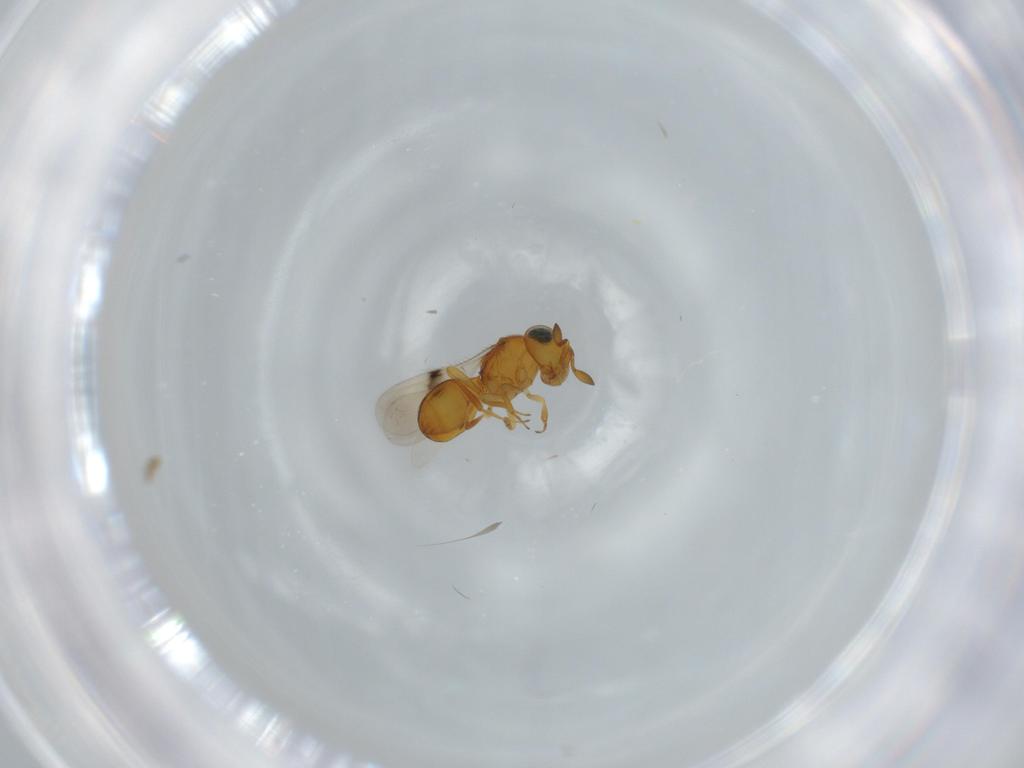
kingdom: Animalia
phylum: Arthropoda
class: Insecta
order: Hymenoptera
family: Scelionidae
